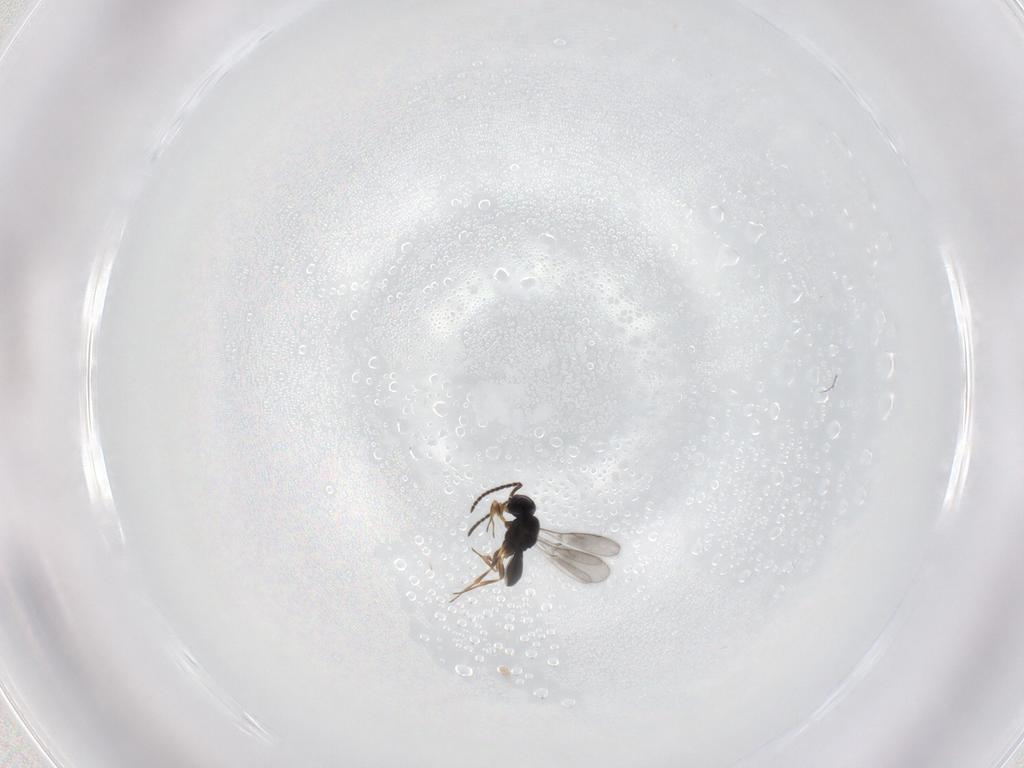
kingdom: Animalia
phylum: Arthropoda
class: Insecta
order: Hymenoptera
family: Scelionidae
